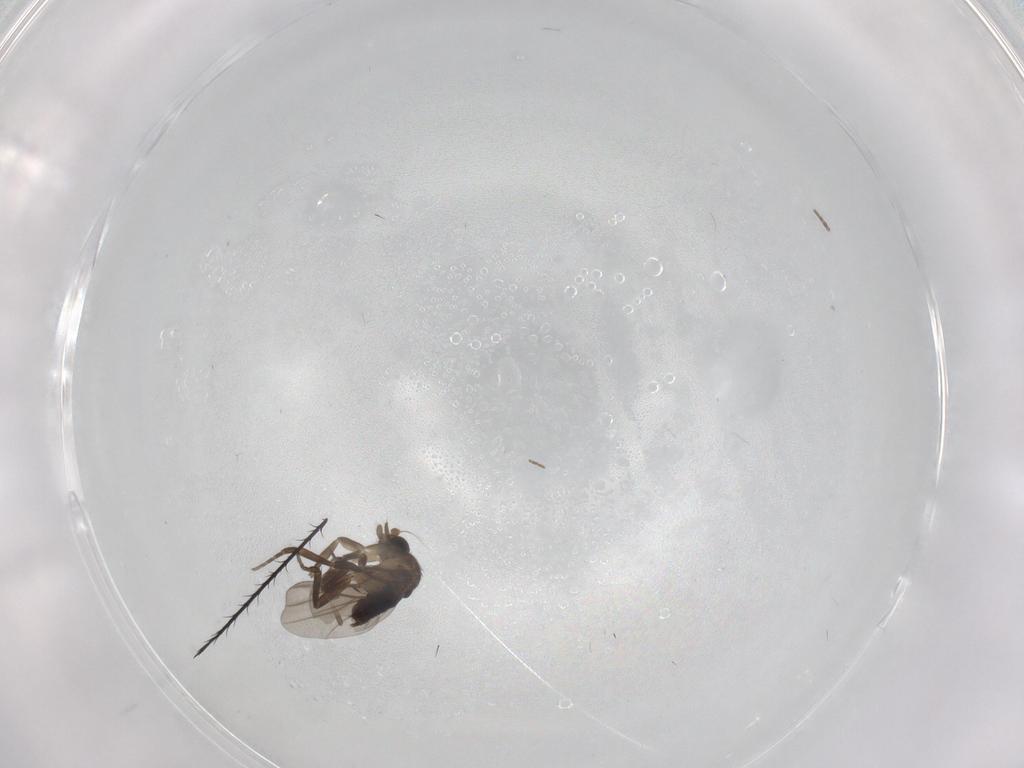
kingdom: Animalia
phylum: Arthropoda
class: Insecta
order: Diptera
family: Phoridae
